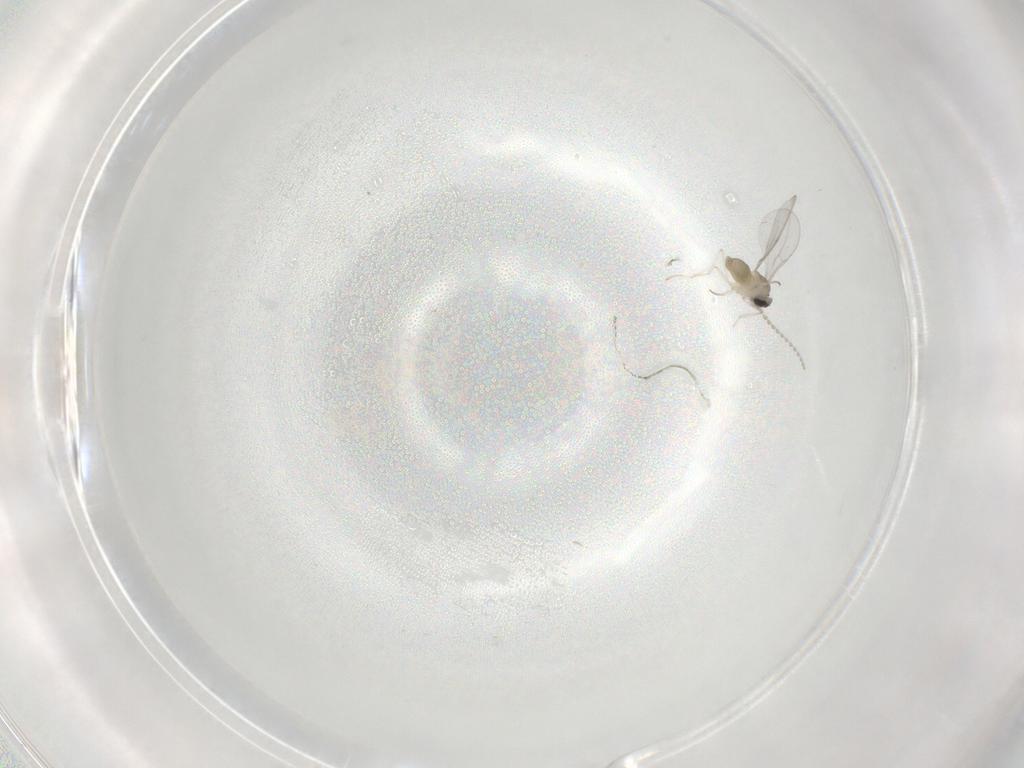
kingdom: Animalia
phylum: Arthropoda
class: Insecta
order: Diptera
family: Cecidomyiidae
